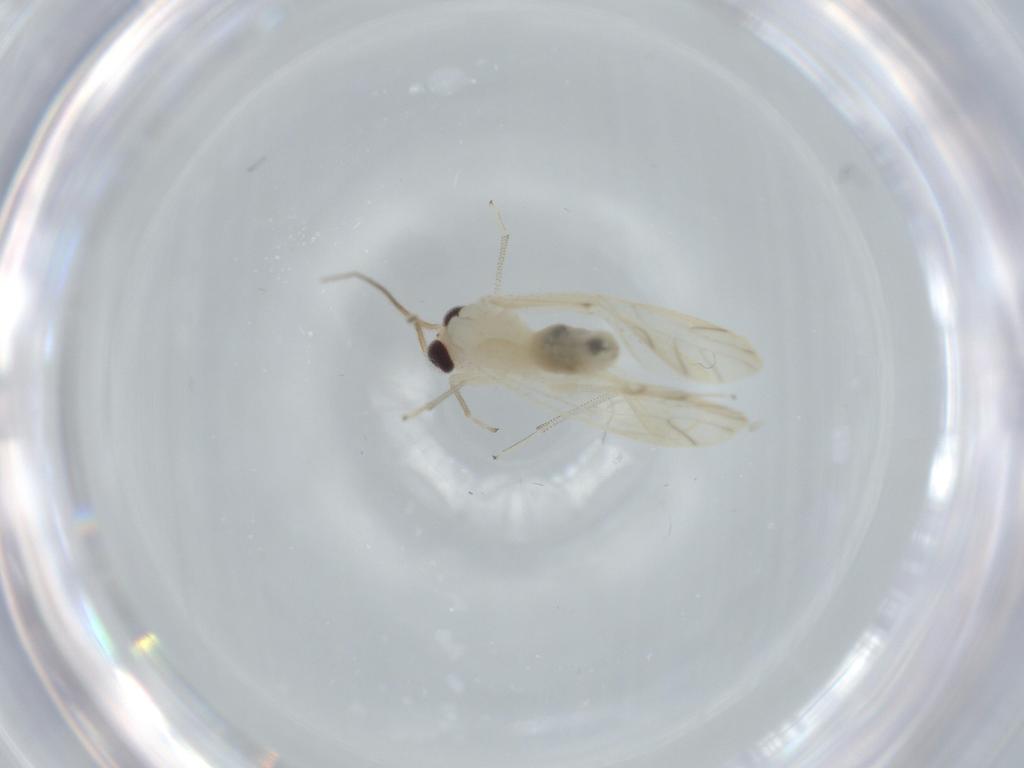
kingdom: Animalia
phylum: Arthropoda
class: Insecta
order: Psocodea
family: Caeciliusidae
